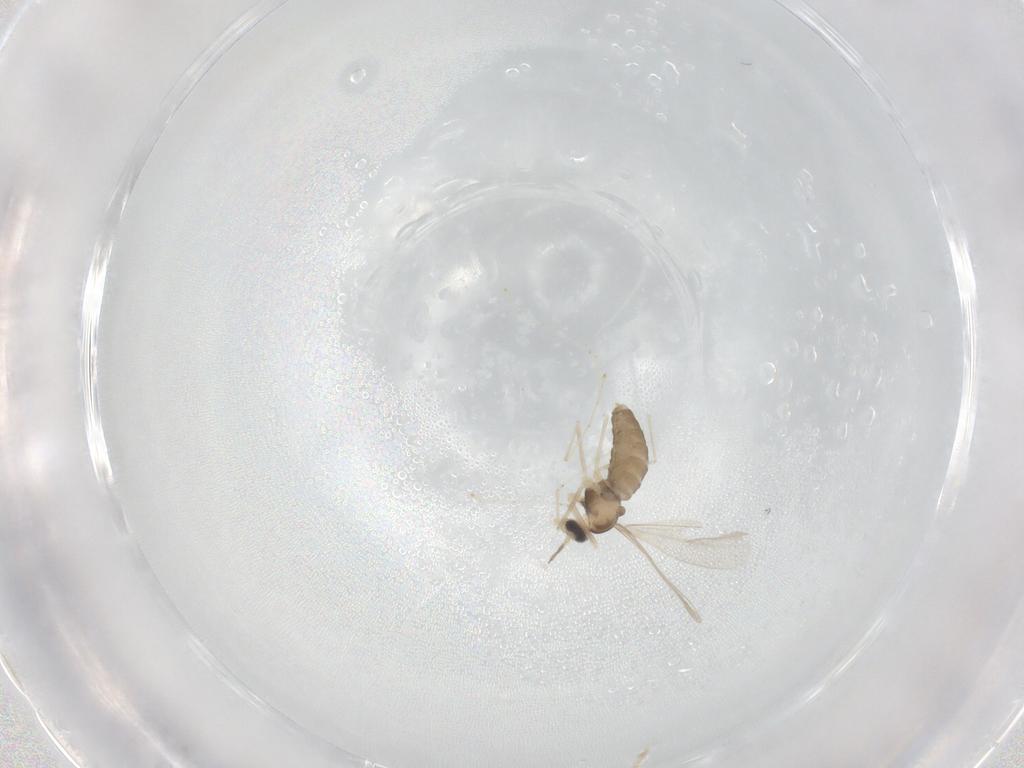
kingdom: Animalia
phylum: Arthropoda
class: Insecta
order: Diptera
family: Cecidomyiidae
